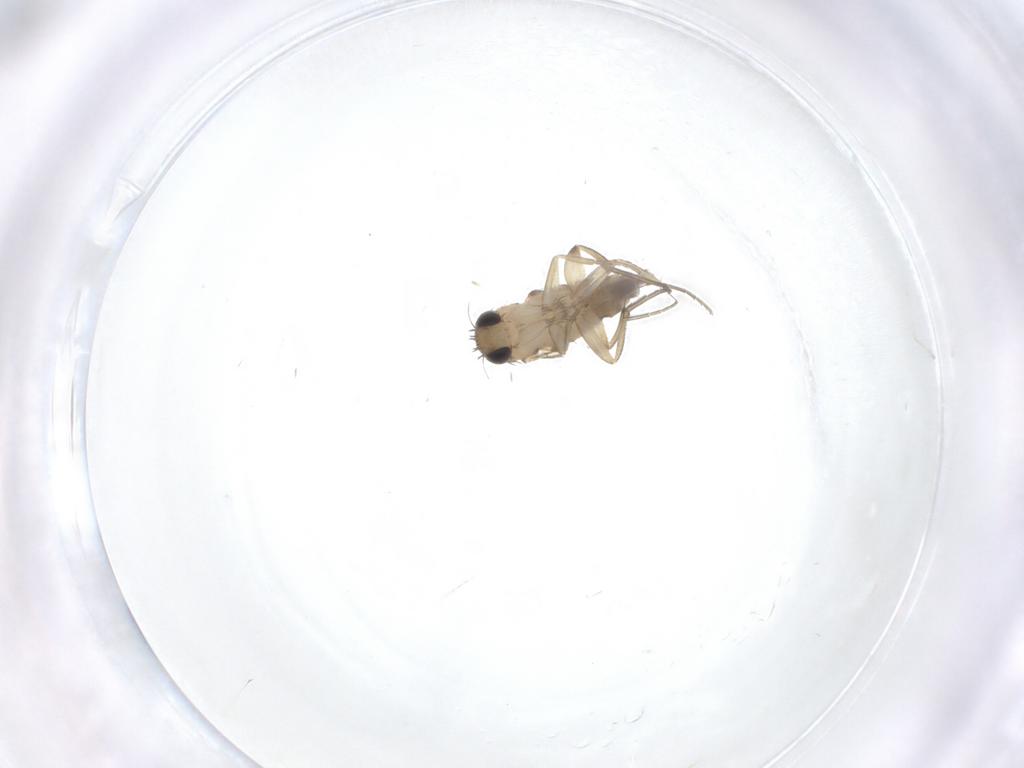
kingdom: Animalia
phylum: Arthropoda
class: Insecta
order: Diptera
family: Phoridae
